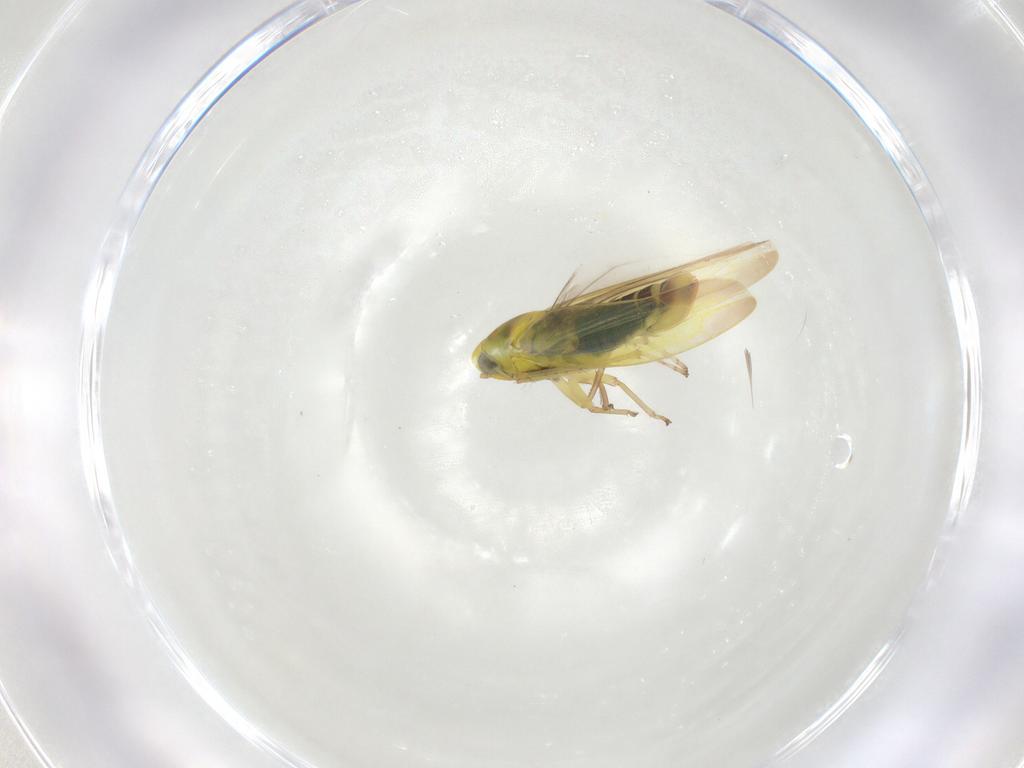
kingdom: Animalia
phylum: Arthropoda
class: Insecta
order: Hemiptera
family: Cicadellidae
